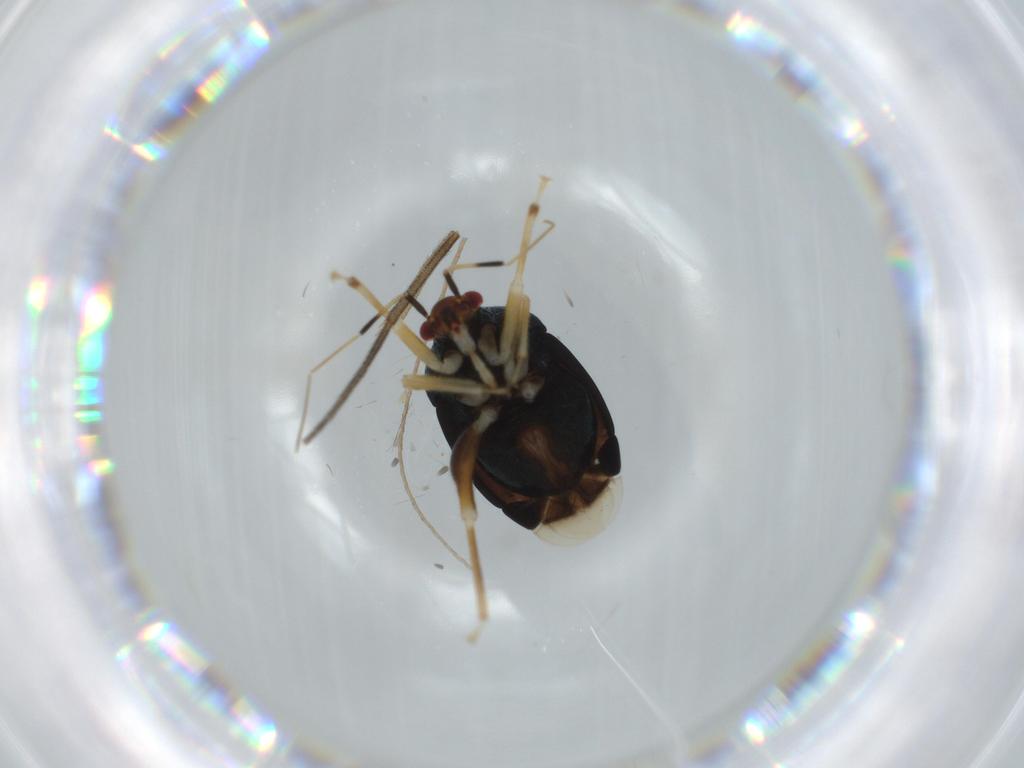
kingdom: Animalia
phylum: Arthropoda
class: Insecta
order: Hemiptera
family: Miridae
